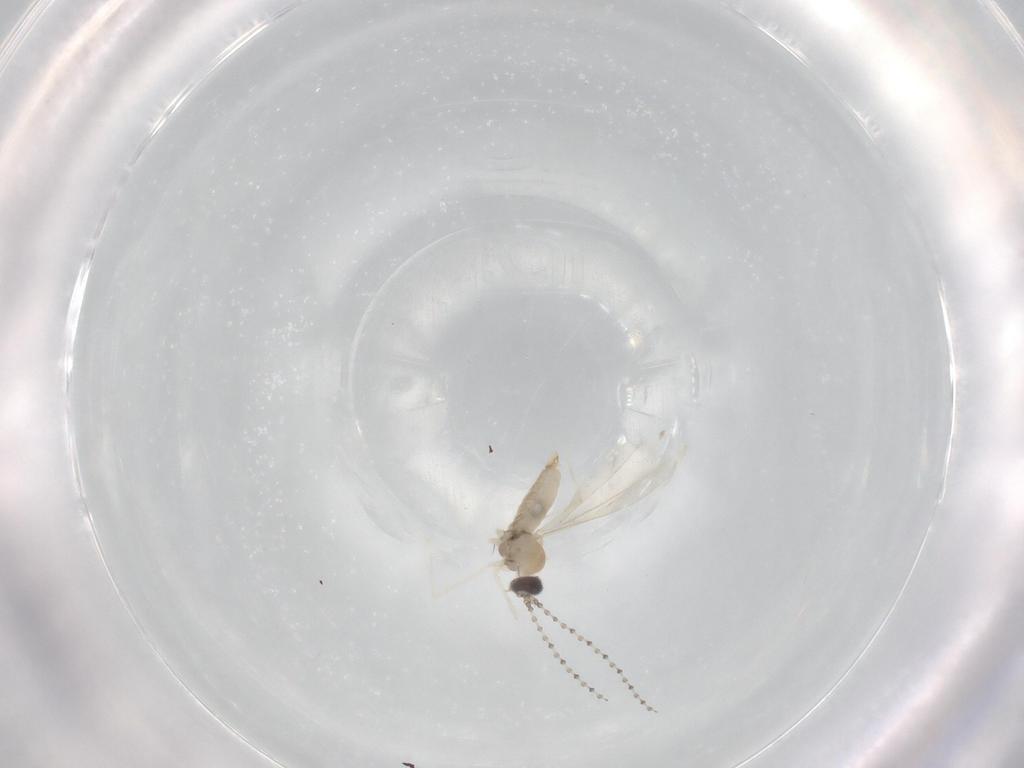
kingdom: Animalia
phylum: Arthropoda
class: Insecta
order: Diptera
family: Cecidomyiidae
